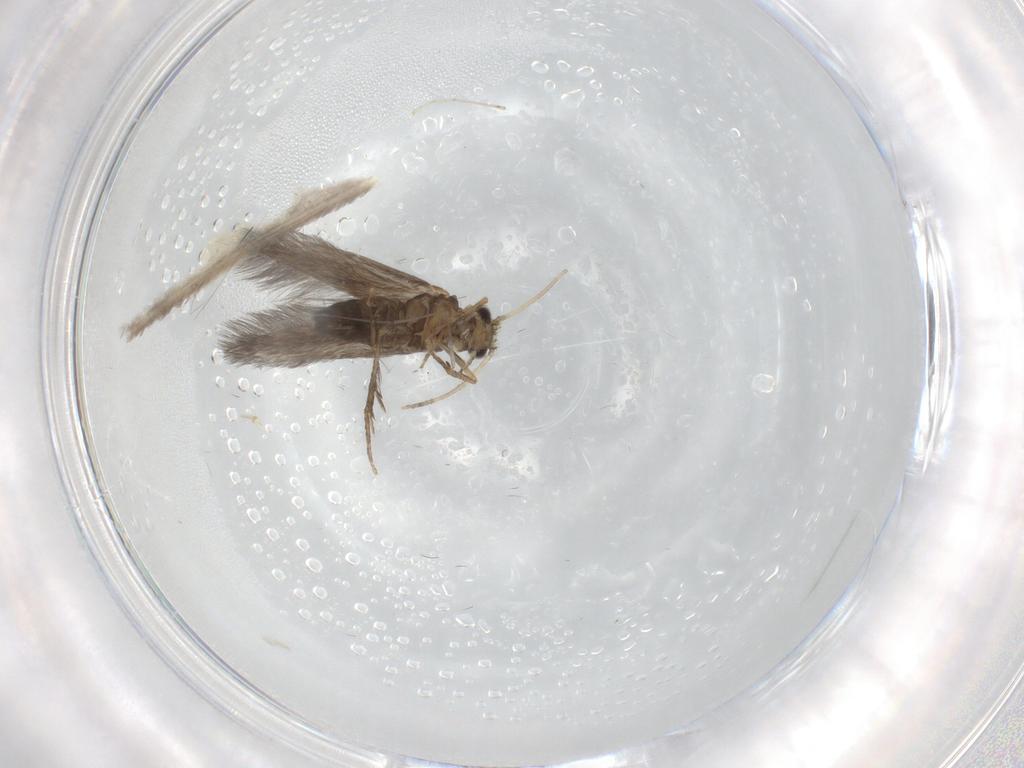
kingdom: Animalia
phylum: Arthropoda
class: Insecta
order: Trichoptera
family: Hydroptilidae
